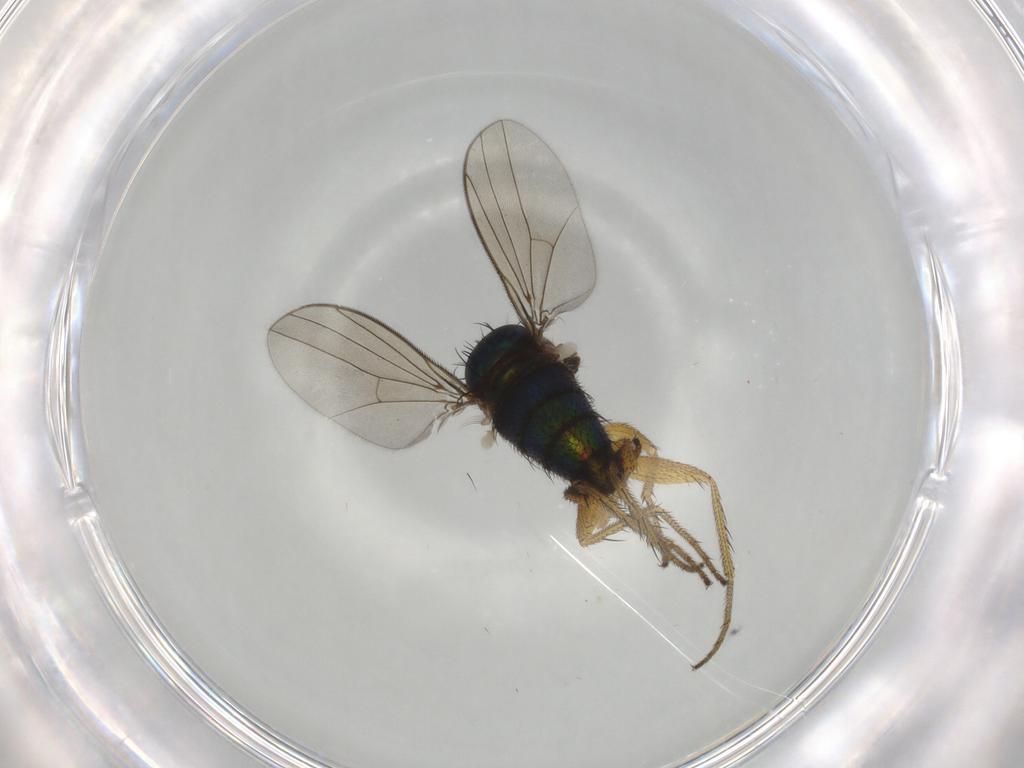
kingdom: Animalia
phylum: Arthropoda
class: Insecta
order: Diptera
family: Dolichopodidae
